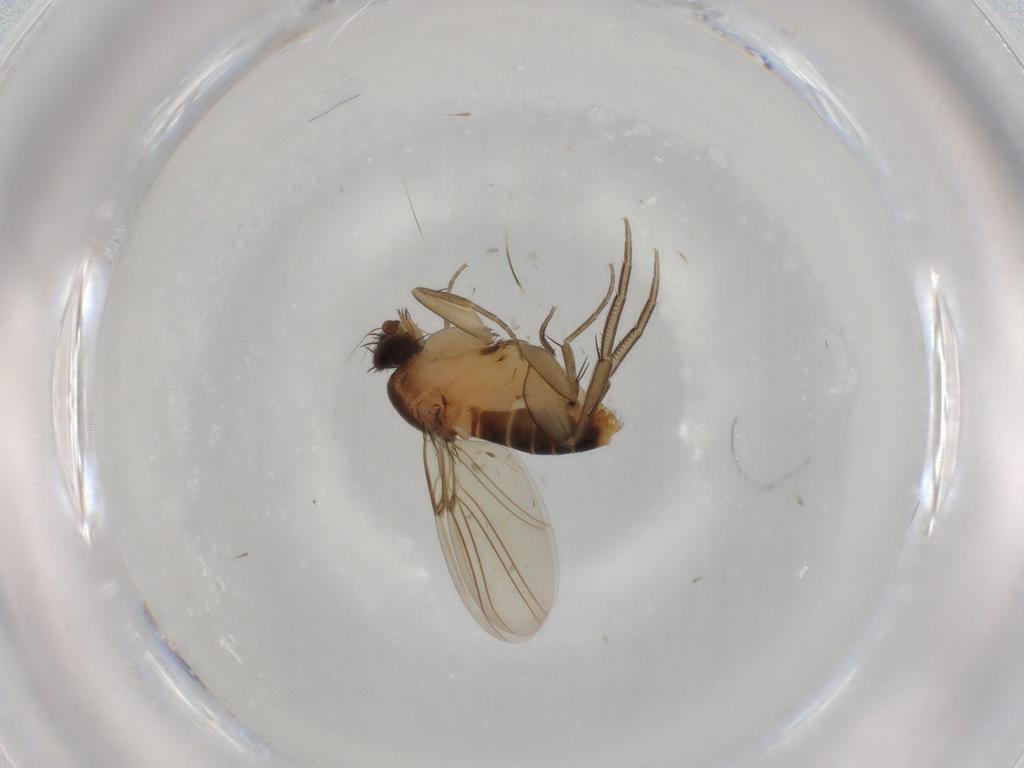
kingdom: Animalia
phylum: Arthropoda
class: Insecta
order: Diptera
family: Phoridae
